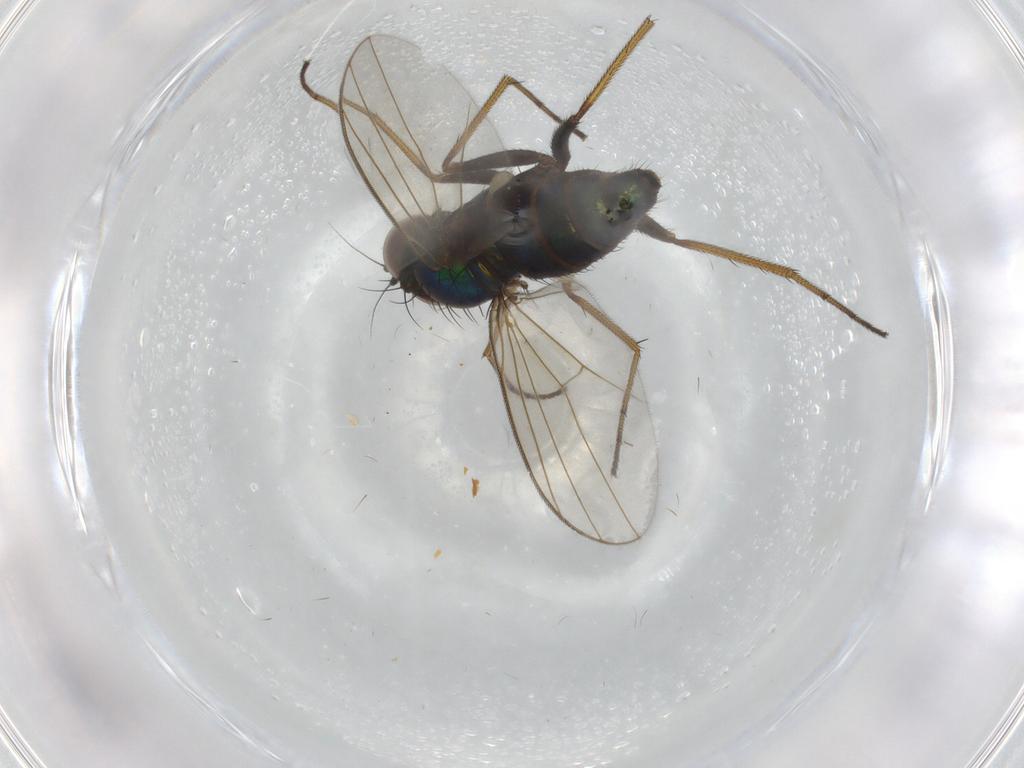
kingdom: Animalia
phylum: Arthropoda
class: Insecta
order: Diptera
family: Dolichopodidae
